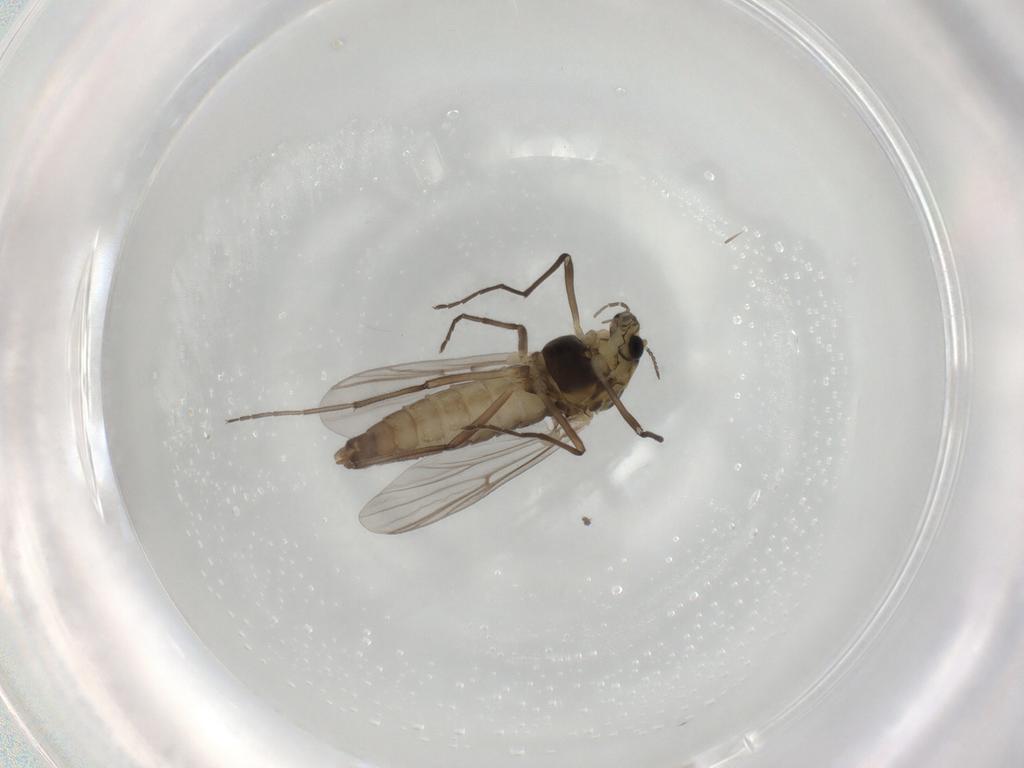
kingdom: Animalia
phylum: Arthropoda
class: Insecta
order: Diptera
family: Chironomidae
